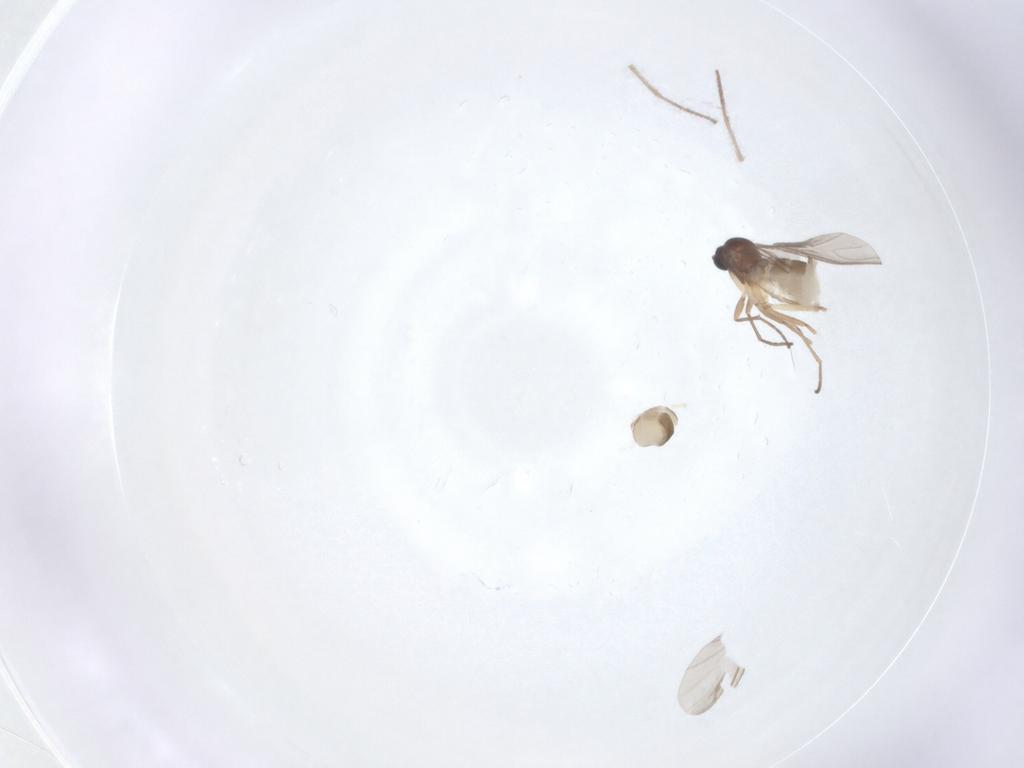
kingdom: Animalia
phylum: Arthropoda
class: Insecta
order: Diptera
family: Sciaridae
